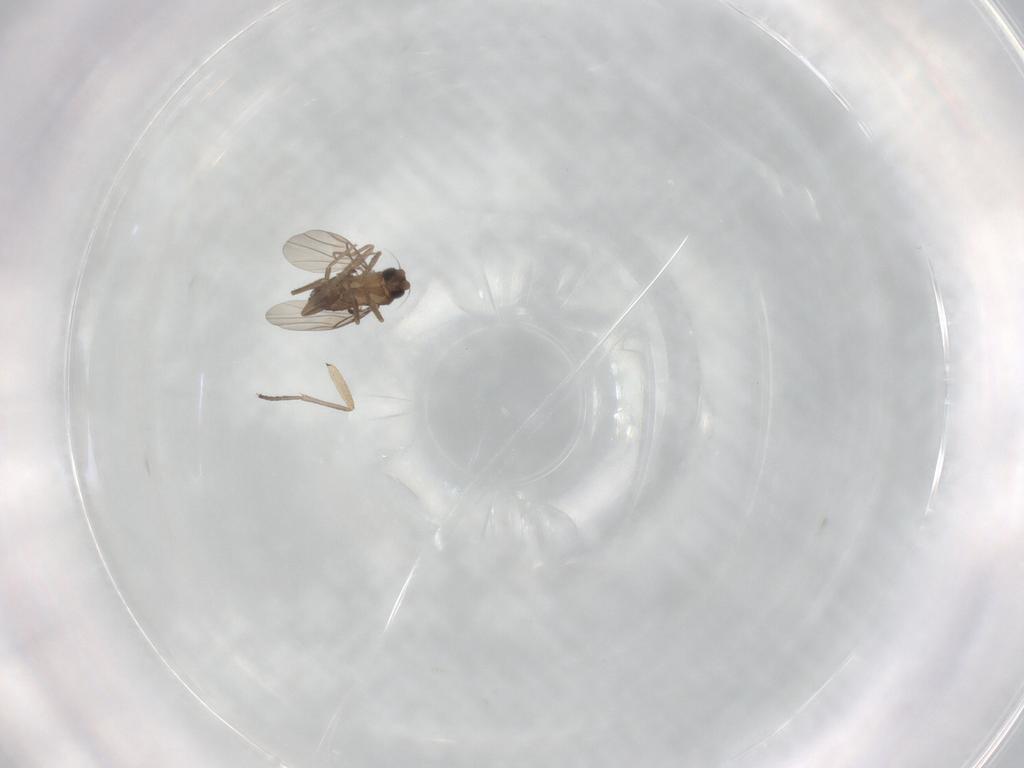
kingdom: Animalia
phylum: Arthropoda
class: Insecta
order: Diptera
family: Phoridae
